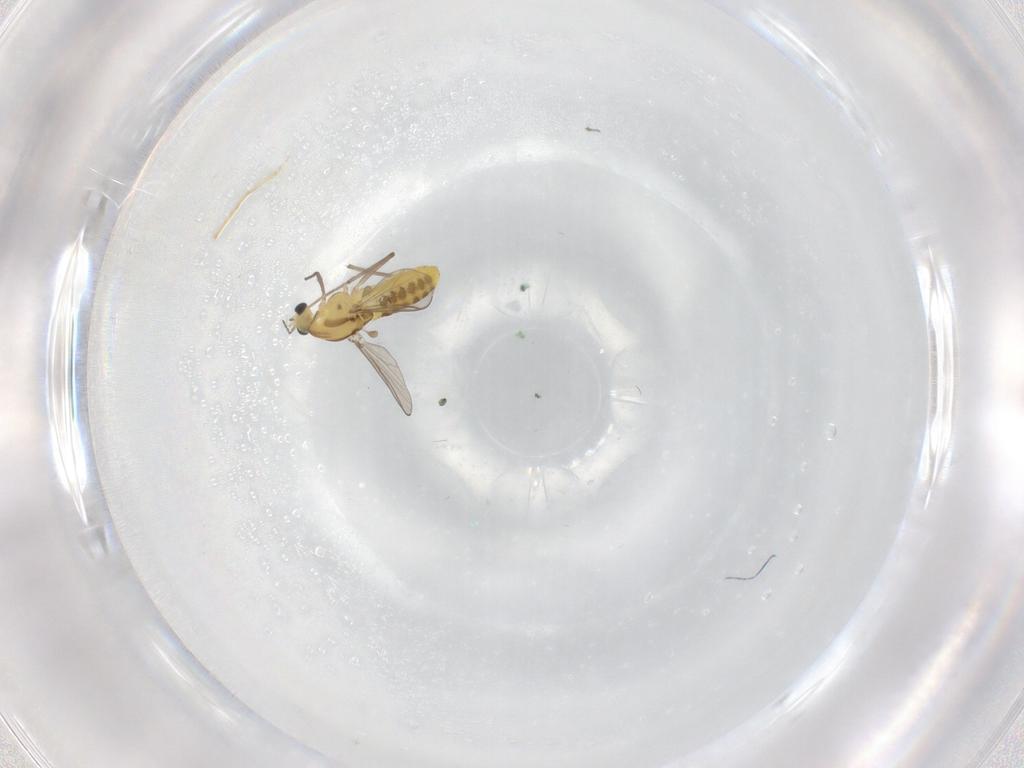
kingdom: Animalia
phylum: Arthropoda
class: Insecta
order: Diptera
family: Chironomidae
